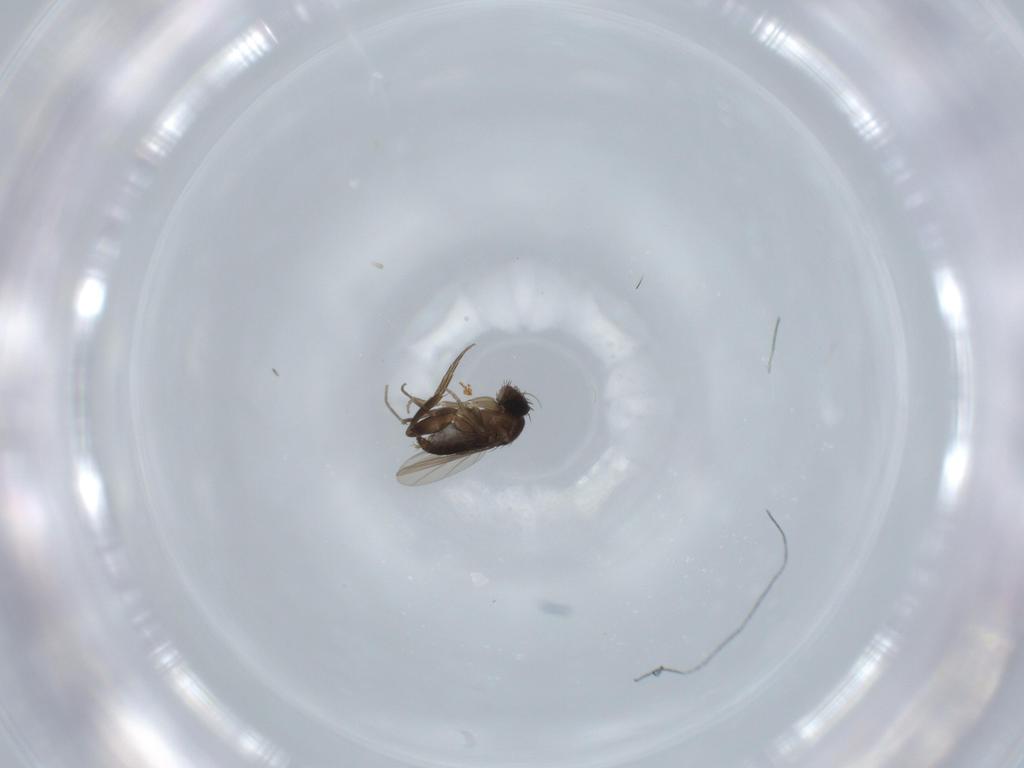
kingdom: Animalia
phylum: Arthropoda
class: Insecta
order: Diptera
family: Phoridae
